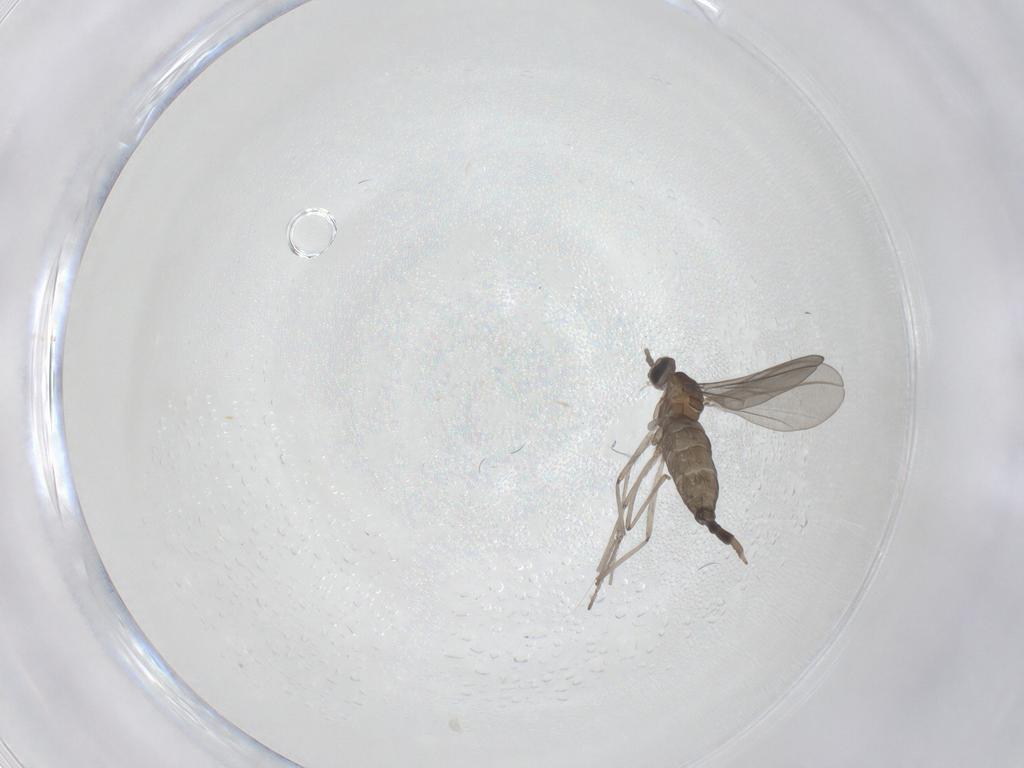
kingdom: Animalia
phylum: Arthropoda
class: Insecta
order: Diptera
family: Cecidomyiidae
